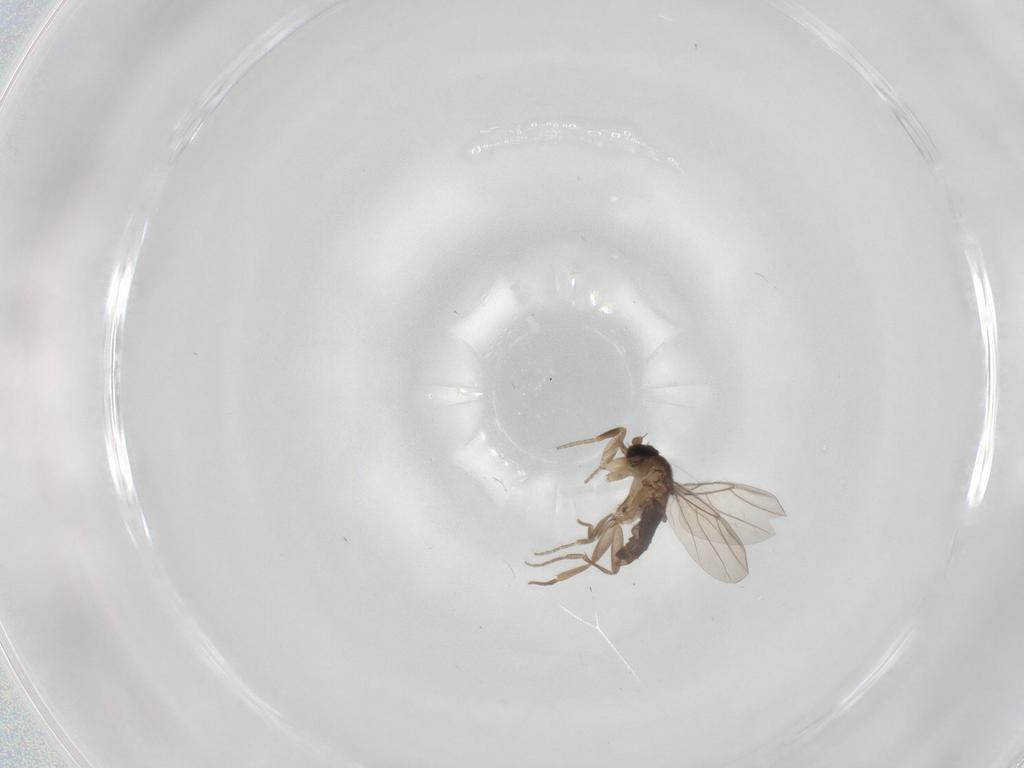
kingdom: Animalia
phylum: Arthropoda
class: Insecta
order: Diptera
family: Phoridae
